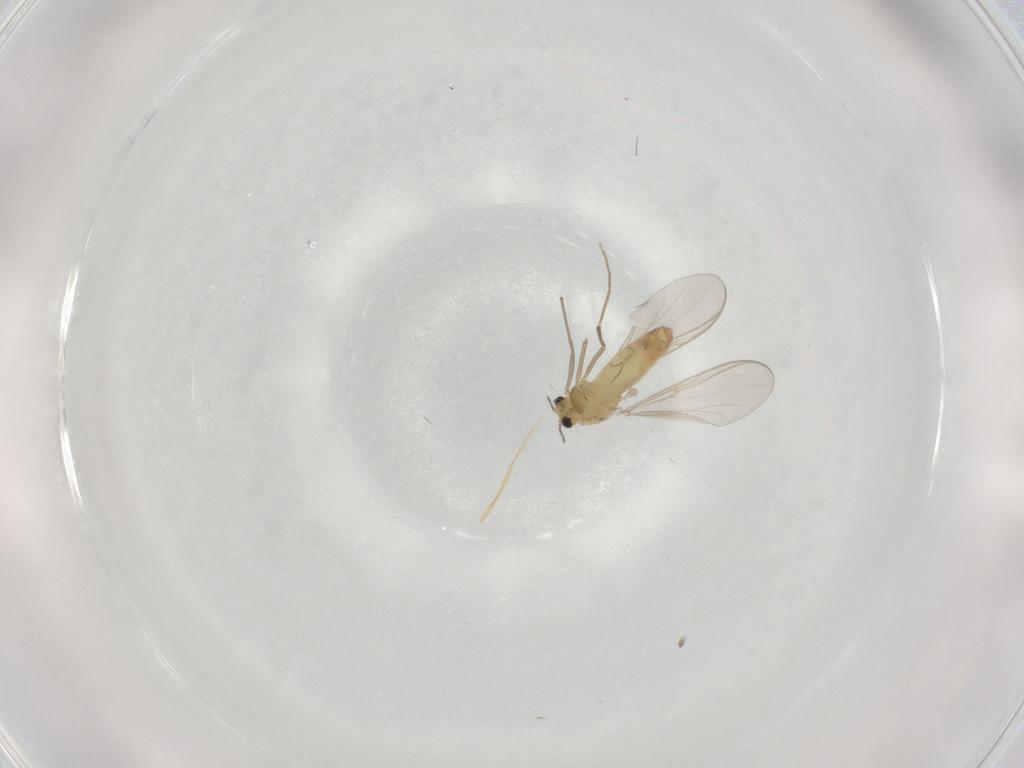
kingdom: Animalia
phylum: Arthropoda
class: Insecta
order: Diptera
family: Chironomidae
